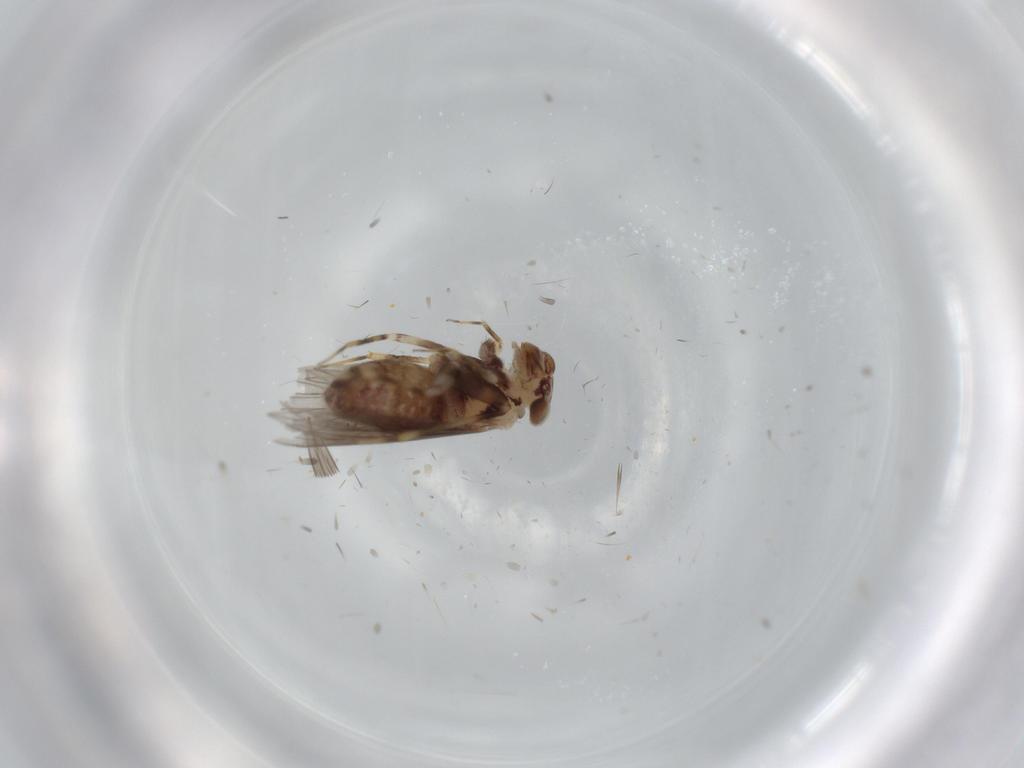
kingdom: Animalia
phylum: Arthropoda
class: Insecta
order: Psocodea
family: Lepidopsocidae
